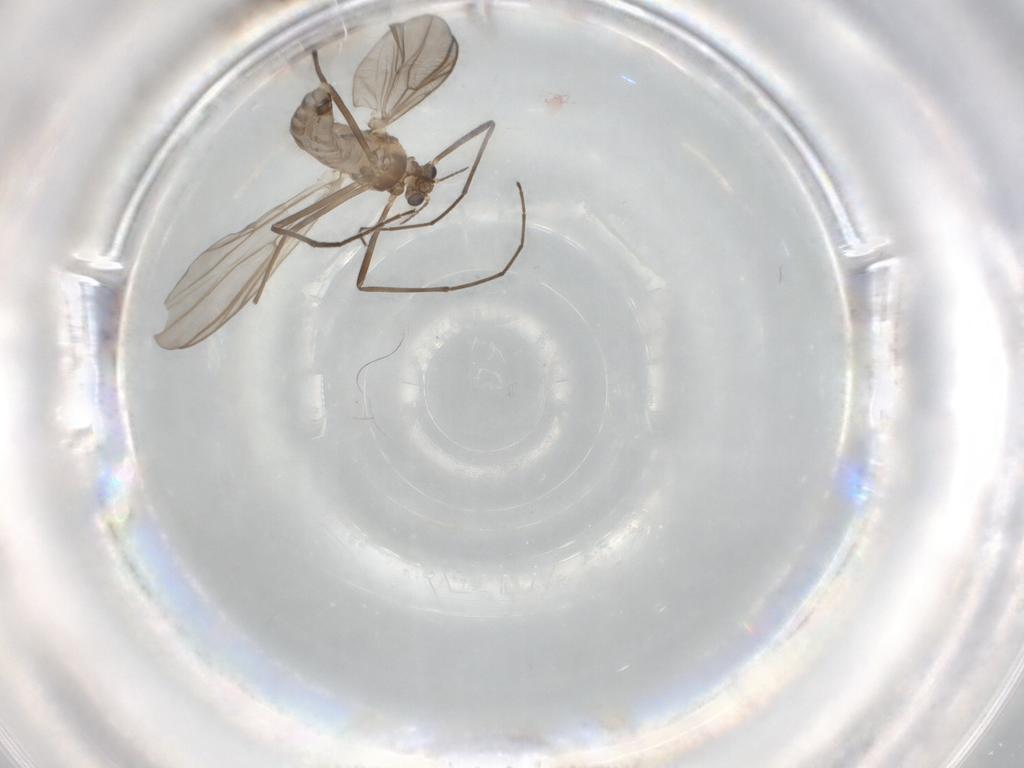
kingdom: Animalia
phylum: Arthropoda
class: Insecta
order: Diptera
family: Chironomidae
